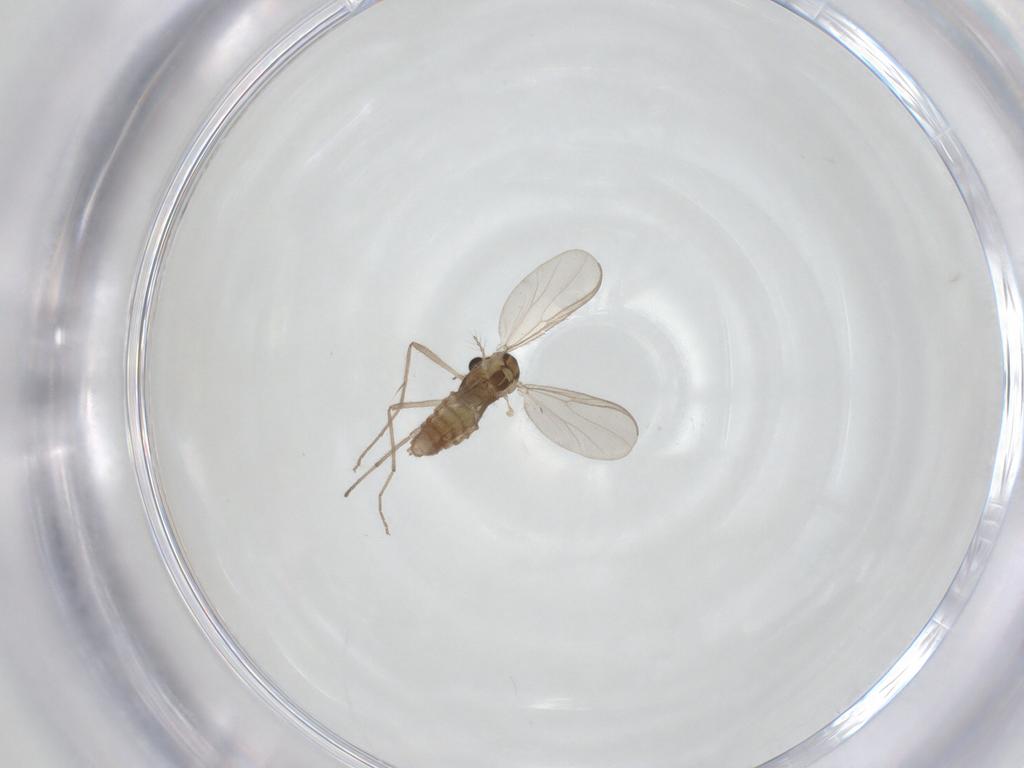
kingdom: Animalia
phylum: Arthropoda
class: Insecta
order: Diptera
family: Chironomidae
